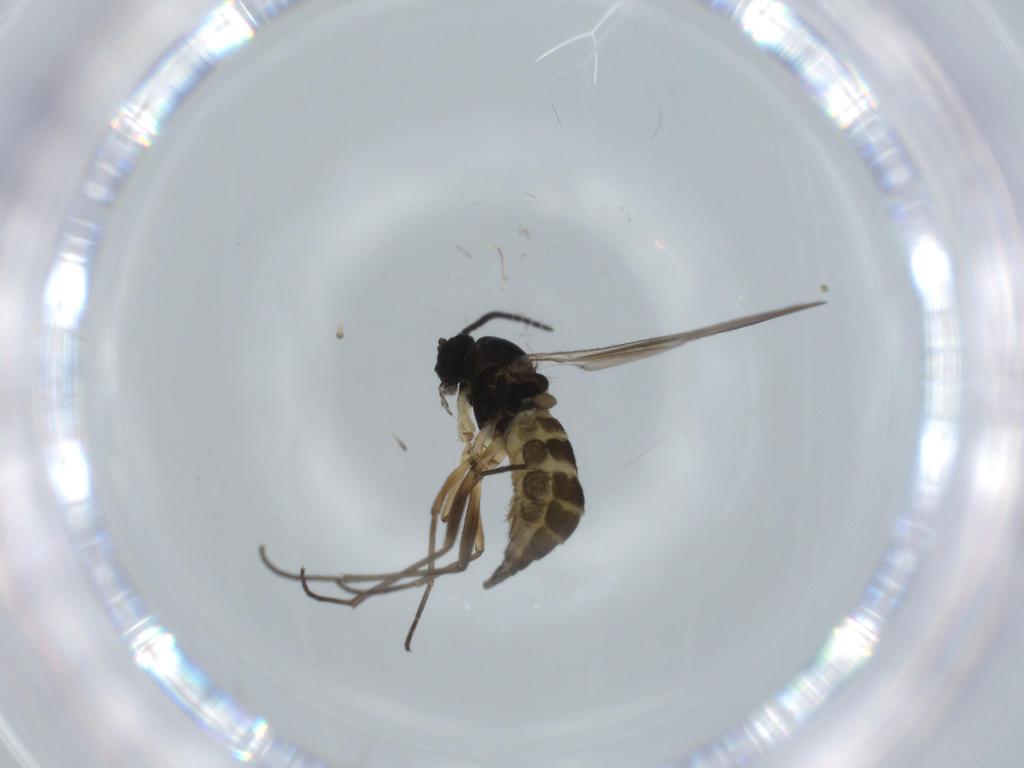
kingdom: Animalia
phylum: Arthropoda
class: Insecta
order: Diptera
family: Sciaridae
